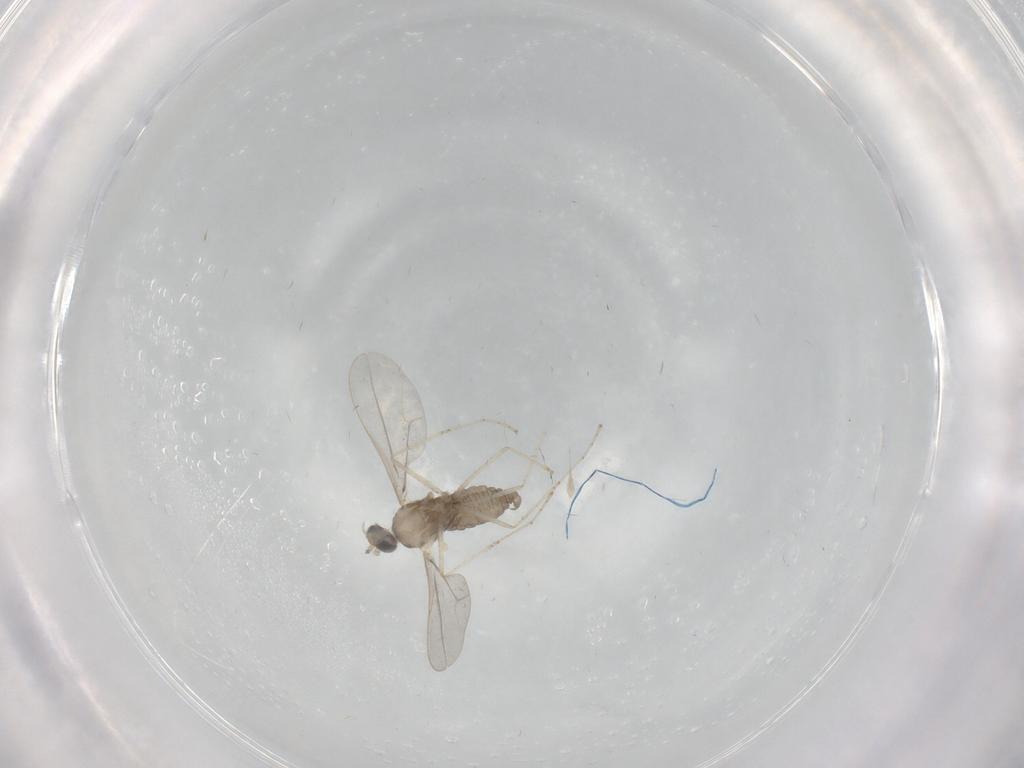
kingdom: Animalia
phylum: Arthropoda
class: Insecta
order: Diptera
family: Cecidomyiidae
